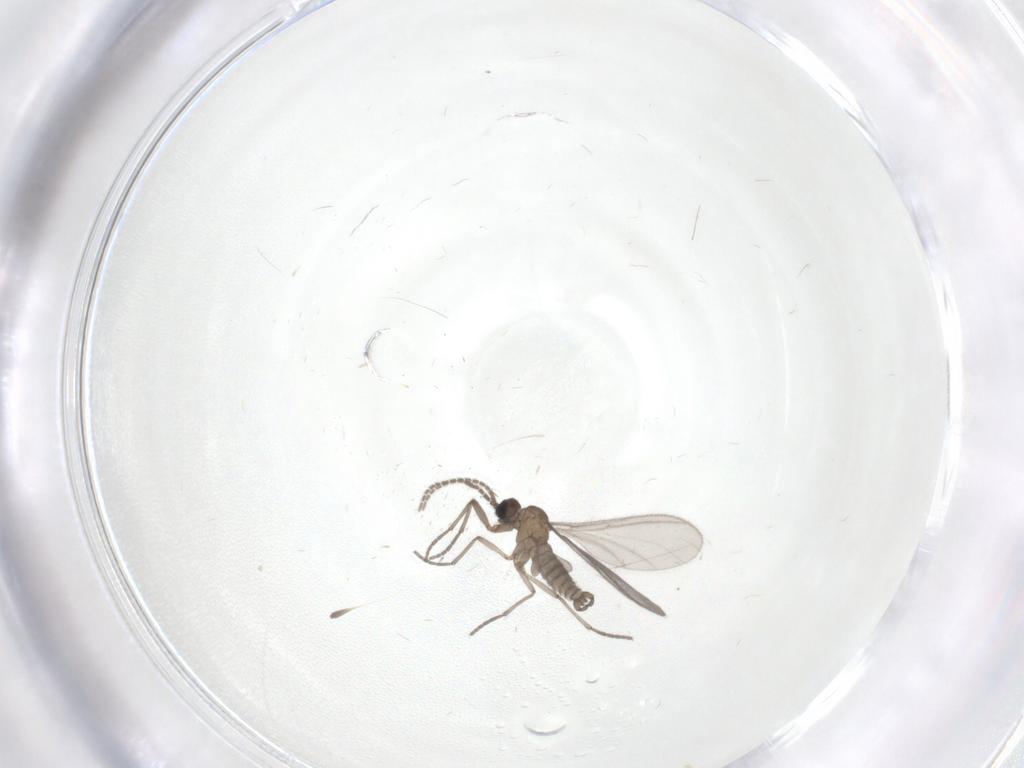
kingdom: Animalia
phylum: Arthropoda
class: Insecta
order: Diptera
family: Sciaridae
